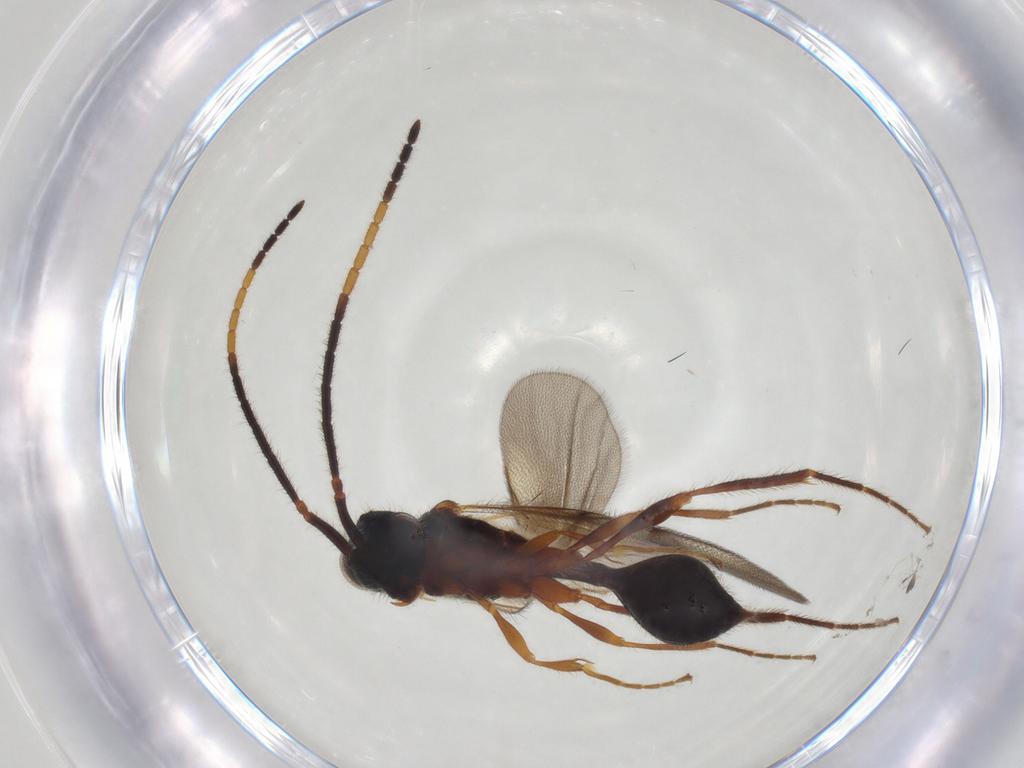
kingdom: Animalia
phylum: Arthropoda
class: Insecta
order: Hymenoptera
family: Diapriidae
